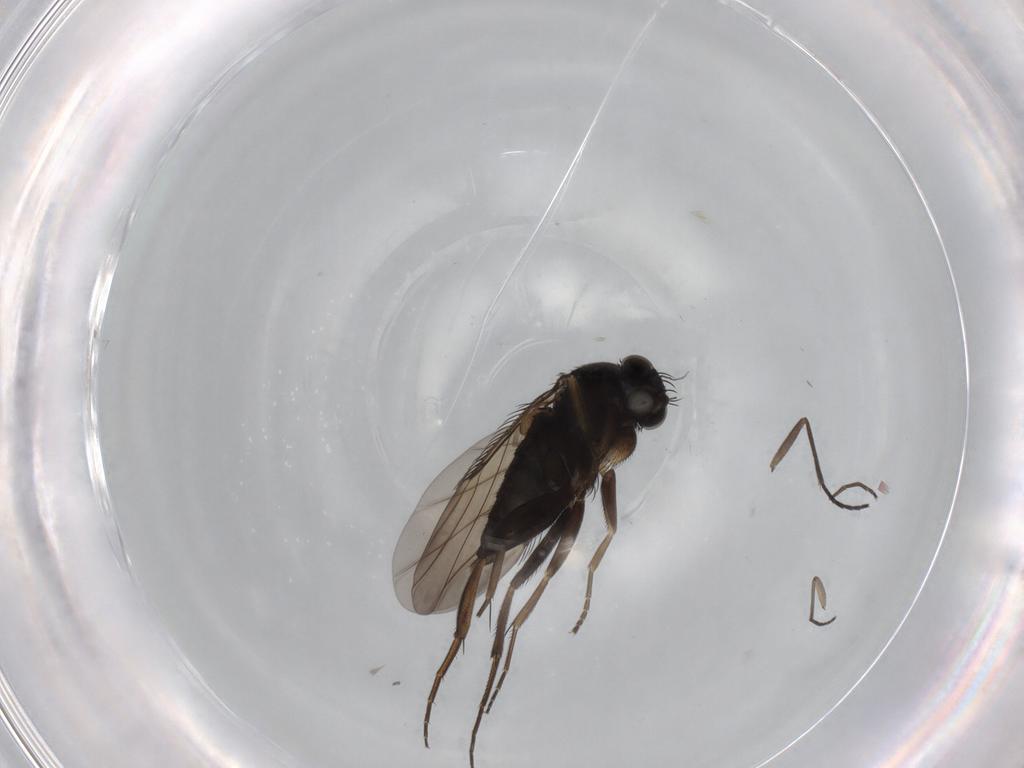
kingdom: Animalia
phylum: Arthropoda
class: Insecta
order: Diptera
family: Phoridae
